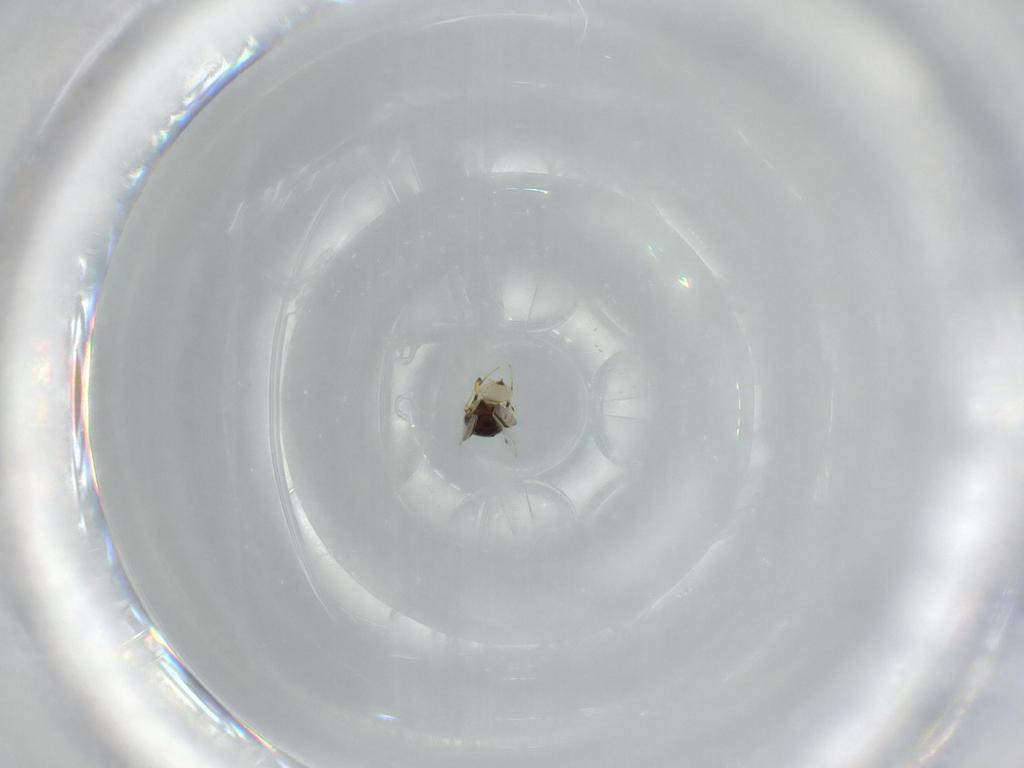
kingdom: Animalia
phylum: Arthropoda
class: Insecta
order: Hymenoptera
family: Scelionidae
